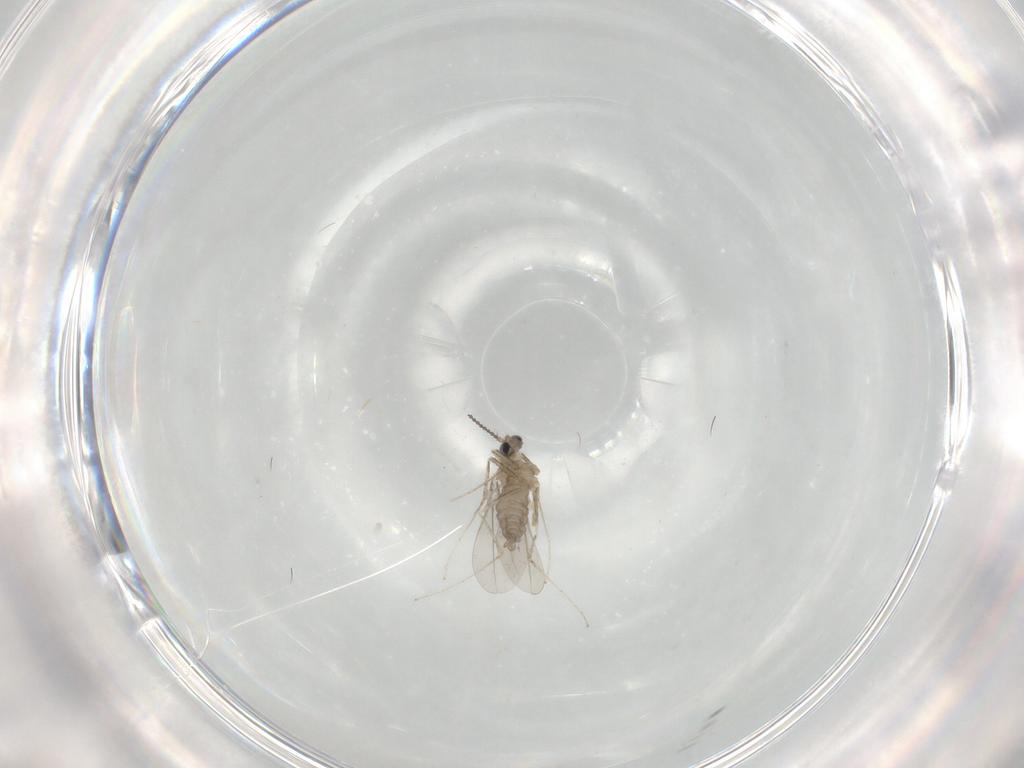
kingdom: Animalia
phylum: Arthropoda
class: Insecta
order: Diptera
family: Cecidomyiidae
